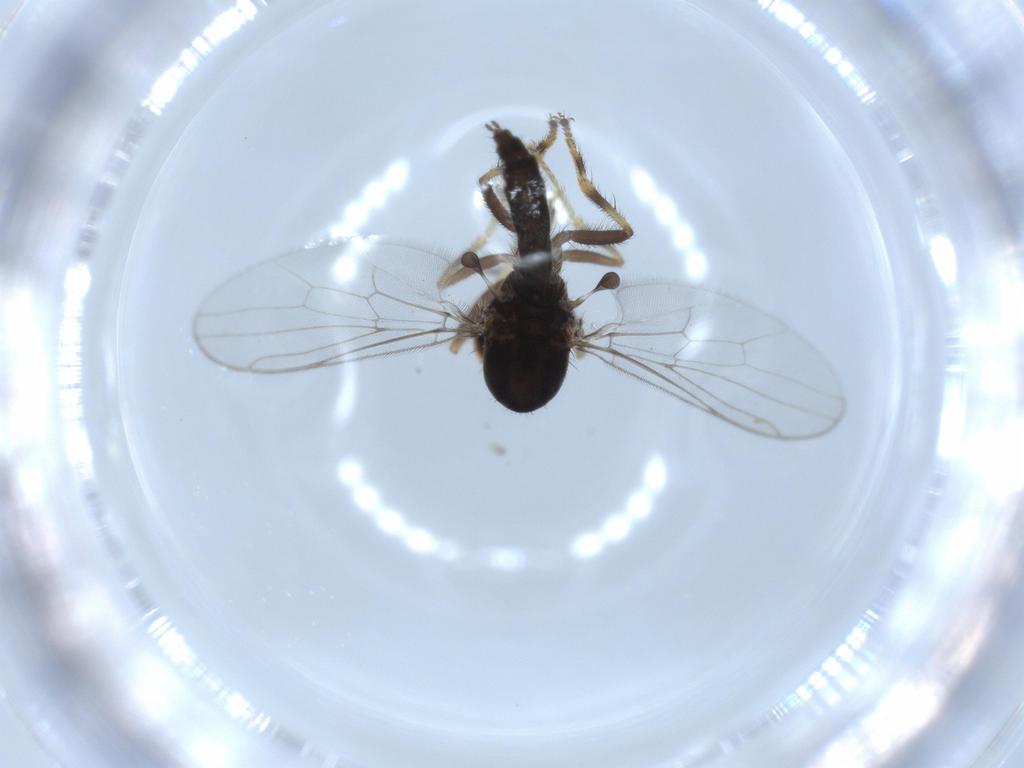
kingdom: Animalia
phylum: Arthropoda
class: Insecta
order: Diptera
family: Hybotidae
